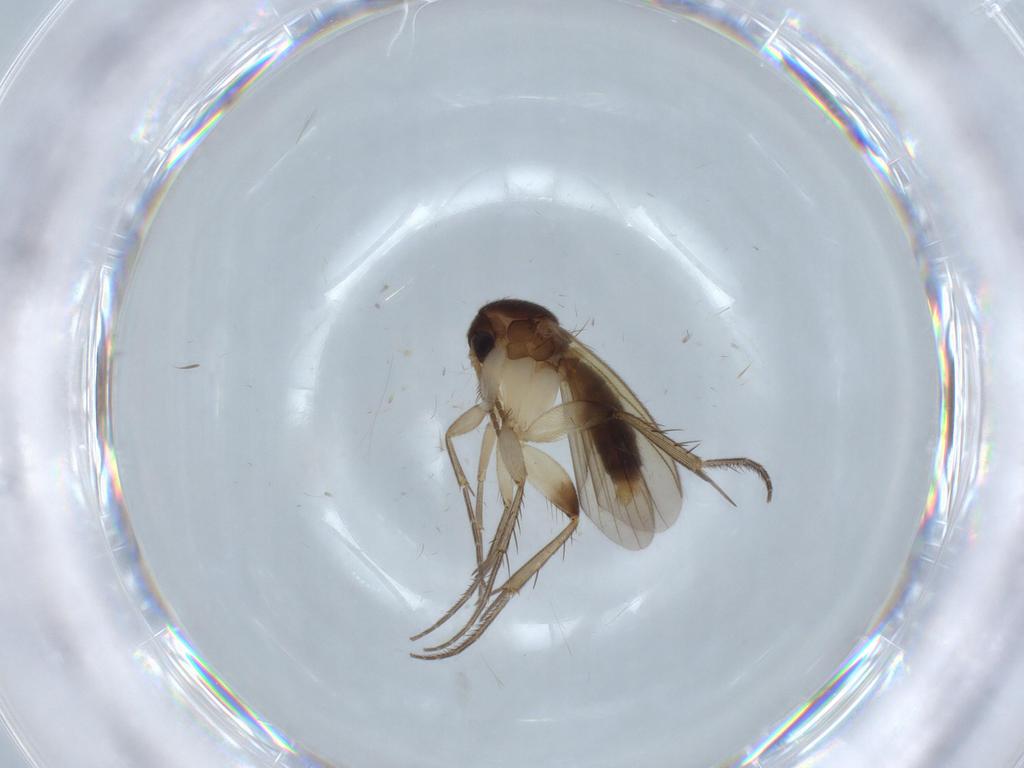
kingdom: Animalia
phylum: Arthropoda
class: Insecta
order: Diptera
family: Mycetophilidae
